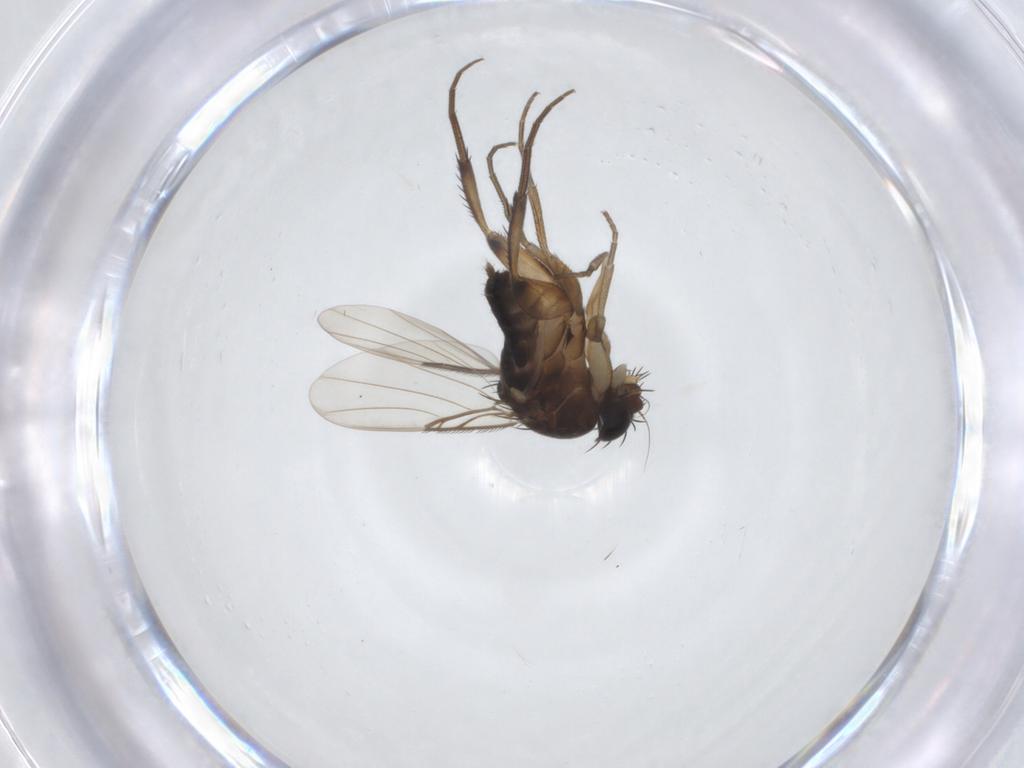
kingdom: Animalia
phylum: Arthropoda
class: Insecta
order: Diptera
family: Phoridae
